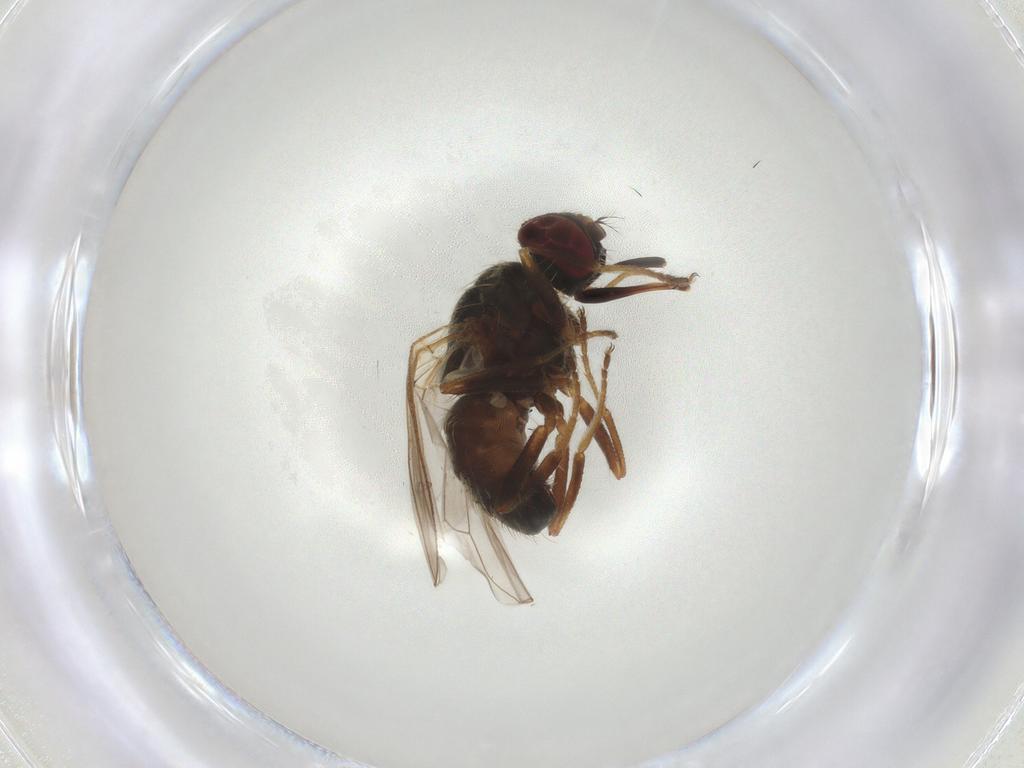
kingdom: Animalia
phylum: Arthropoda
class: Insecta
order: Diptera
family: Muscidae
